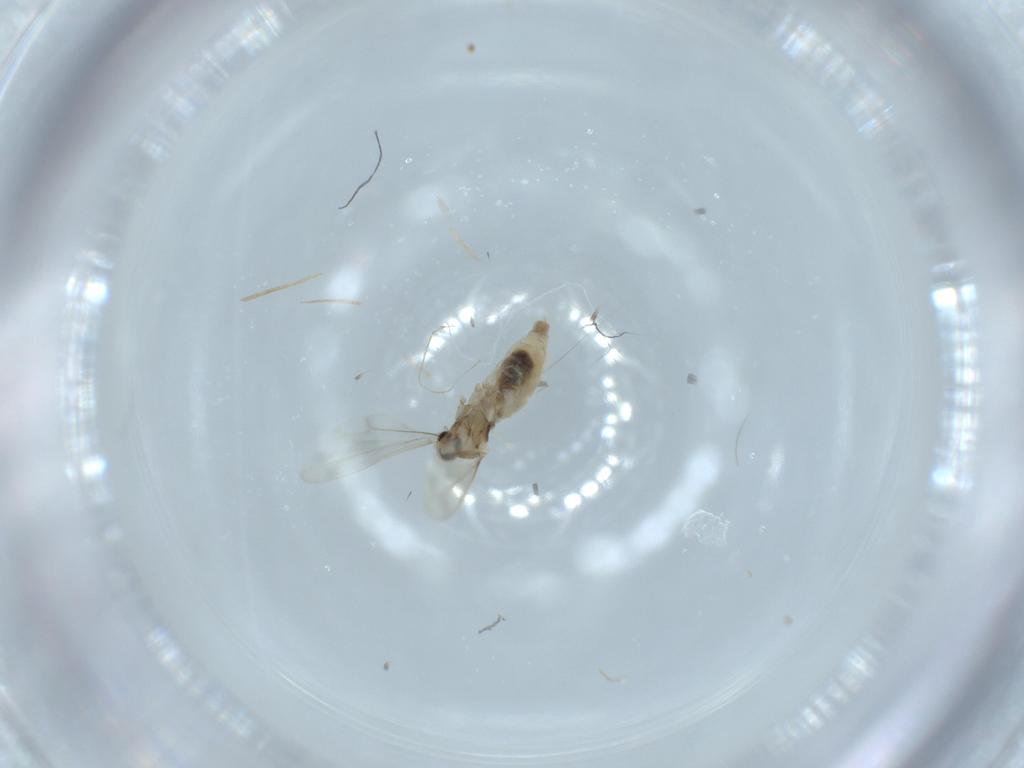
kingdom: Animalia
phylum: Arthropoda
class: Insecta
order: Diptera
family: Cecidomyiidae
